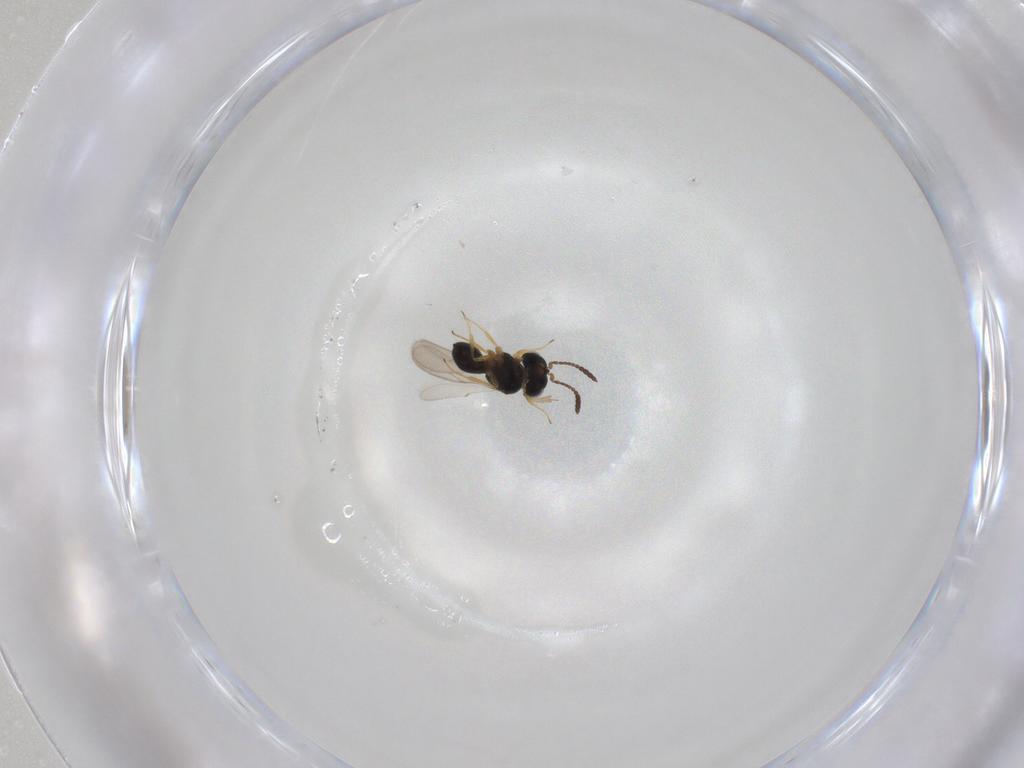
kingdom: Animalia
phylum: Arthropoda
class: Insecta
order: Hymenoptera
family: Scelionidae
